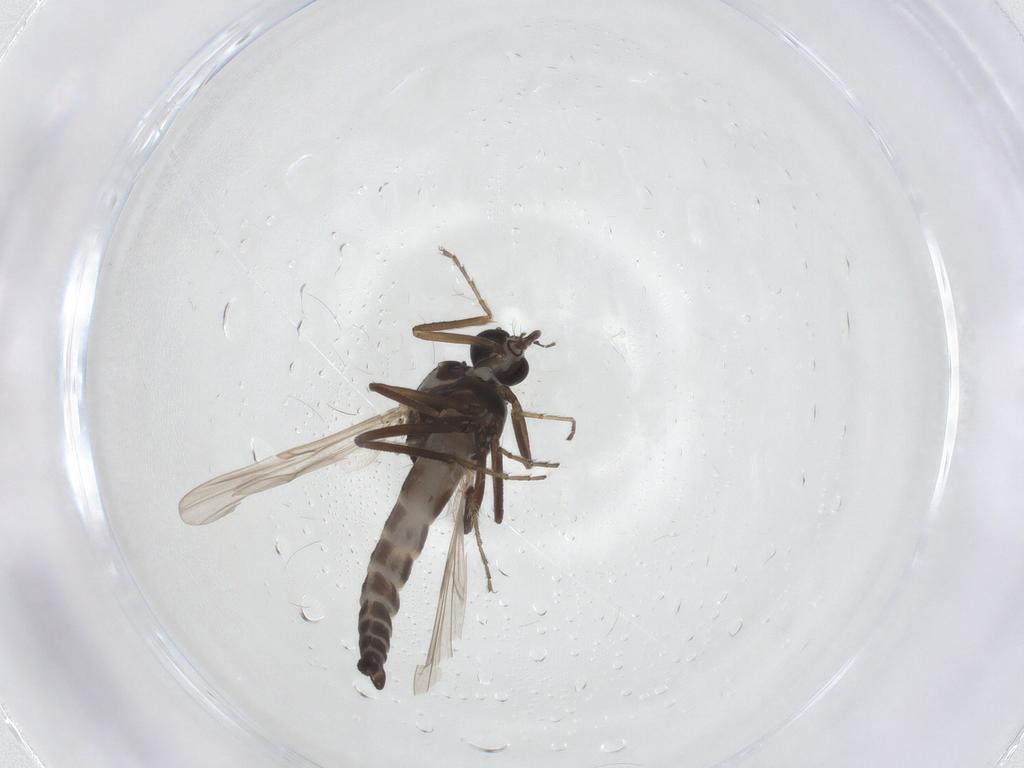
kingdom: Animalia
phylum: Arthropoda
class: Insecta
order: Diptera
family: Ceratopogonidae
